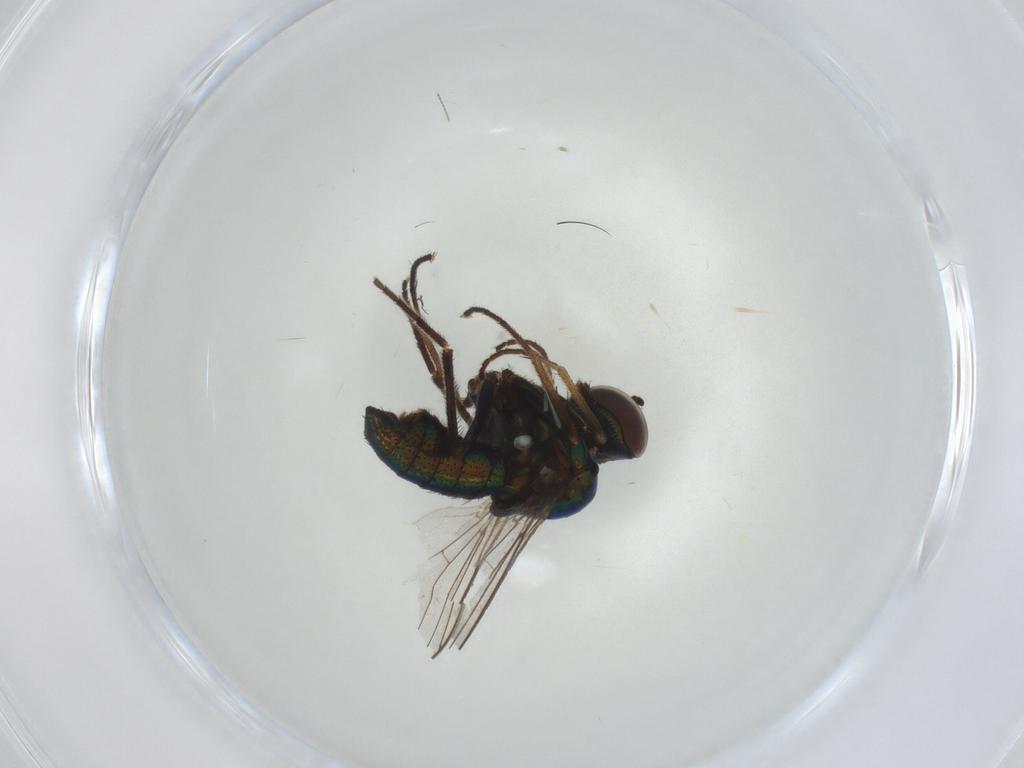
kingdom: Animalia
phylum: Arthropoda
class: Insecta
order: Diptera
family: Dolichopodidae
